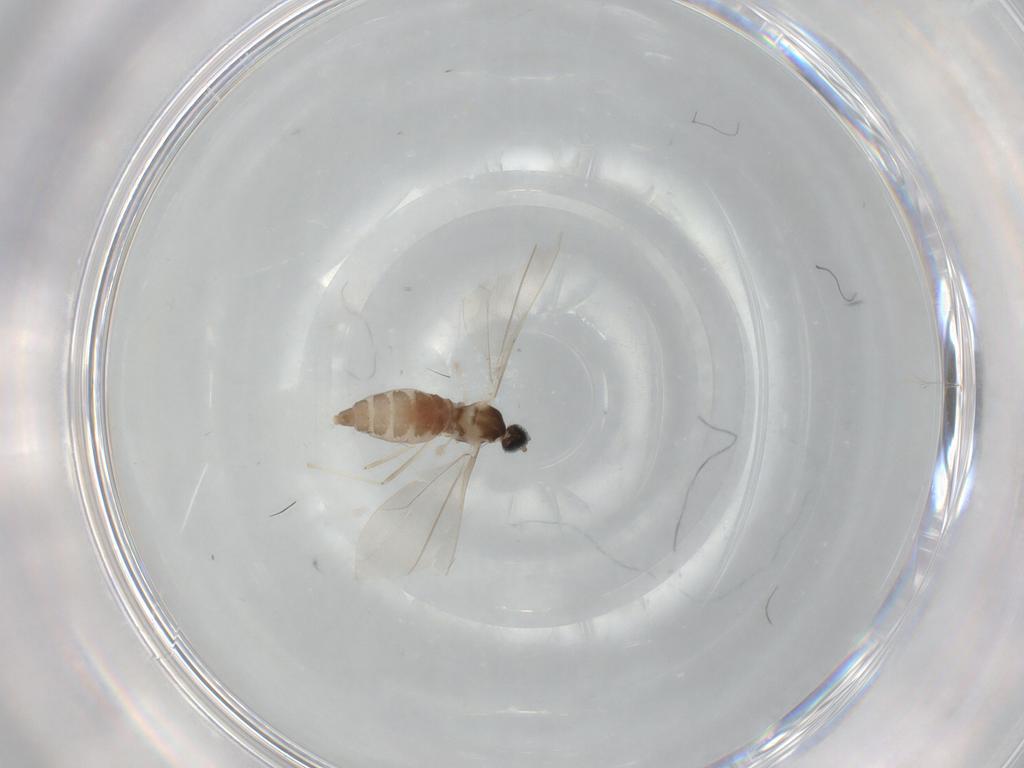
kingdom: Animalia
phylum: Arthropoda
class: Insecta
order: Diptera
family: Cecidomyiidae
